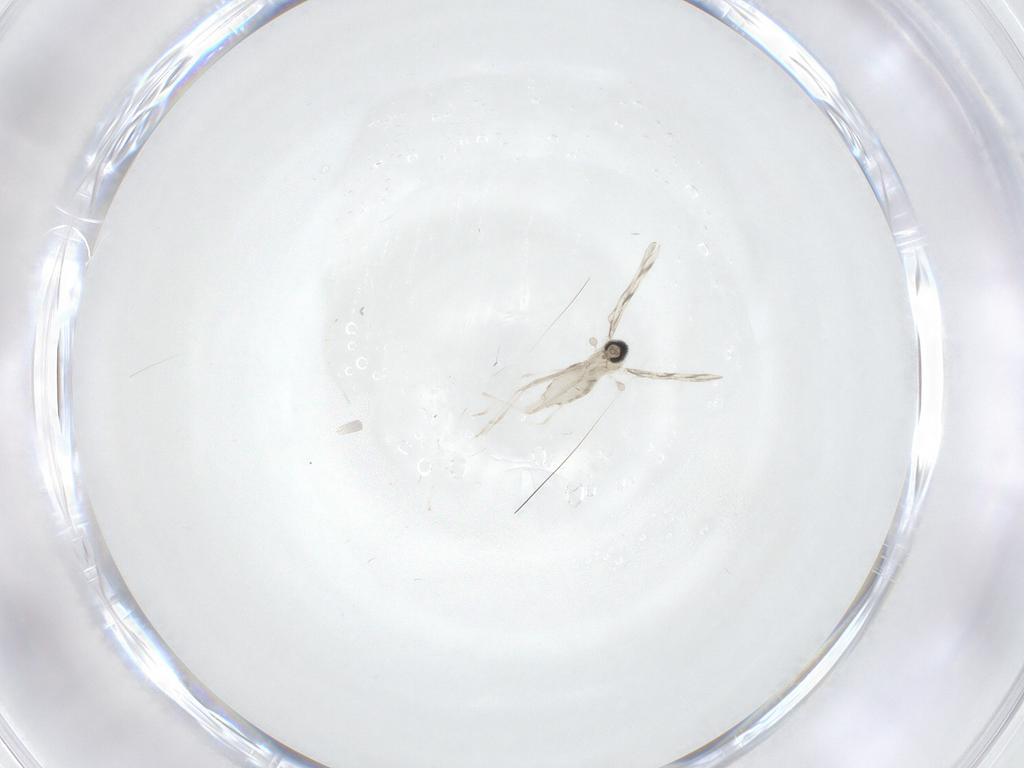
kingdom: Animalia
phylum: Arthropoda
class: Insecta
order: Diptera
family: Cecidomyiidae
